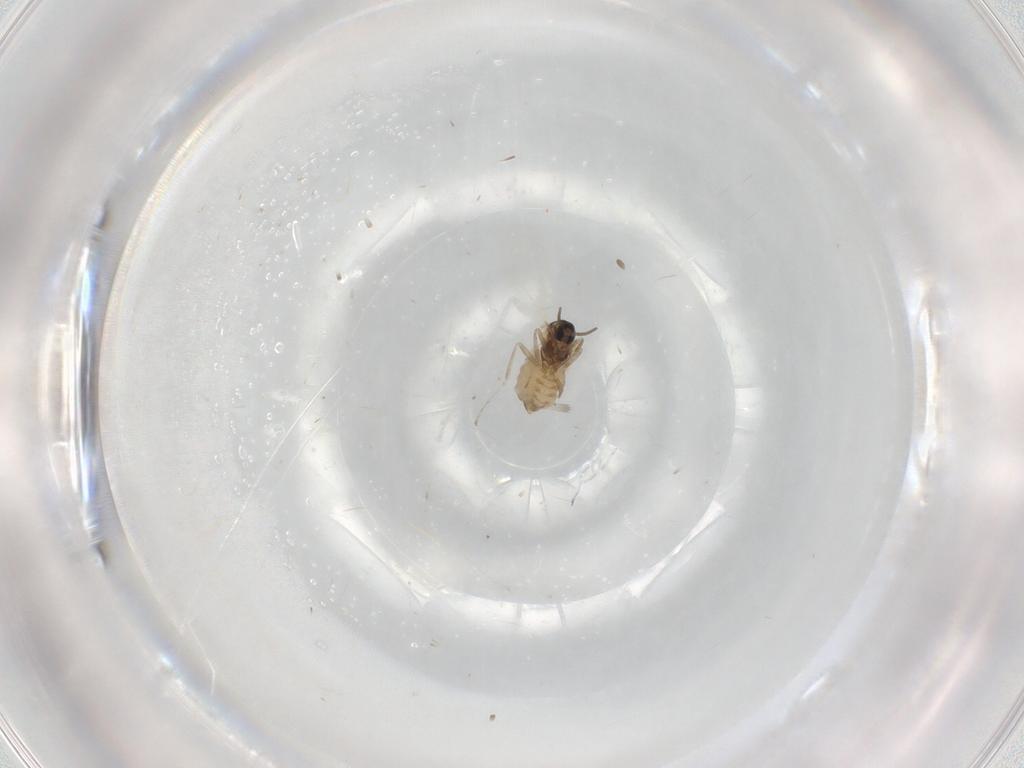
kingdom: Animalia
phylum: Arthropoda
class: Insecta
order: Diptera
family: Cecidomyiidae
